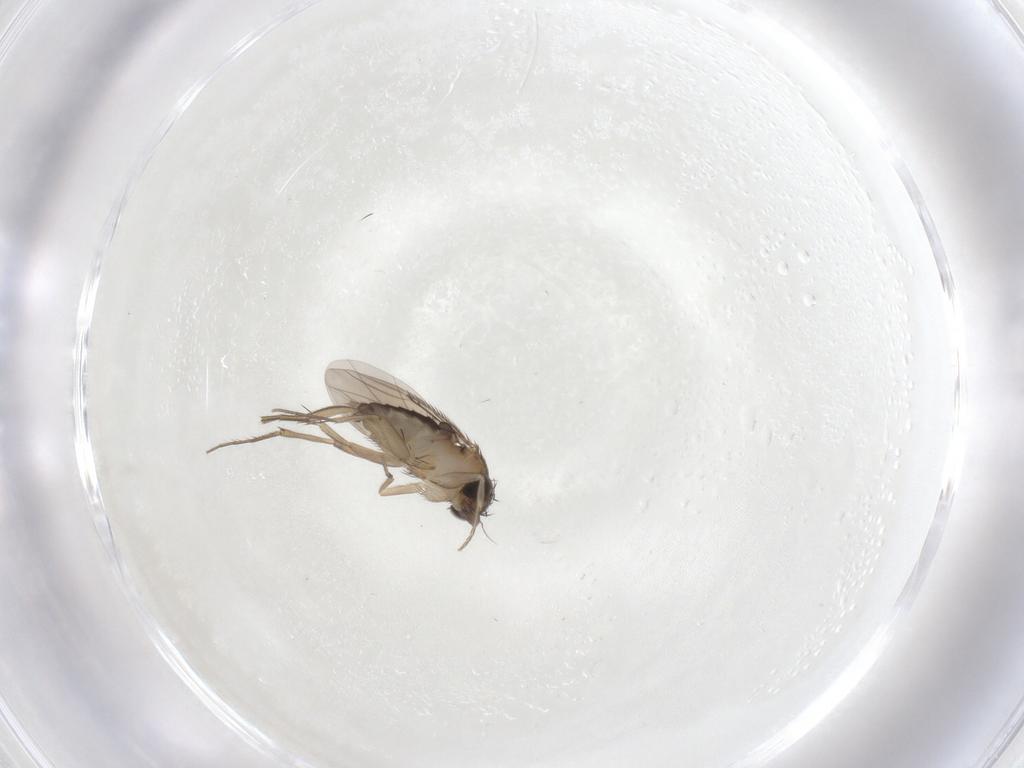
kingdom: Animalia
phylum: Arthropoda
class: Insecta
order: Diptera
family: Phoridae
